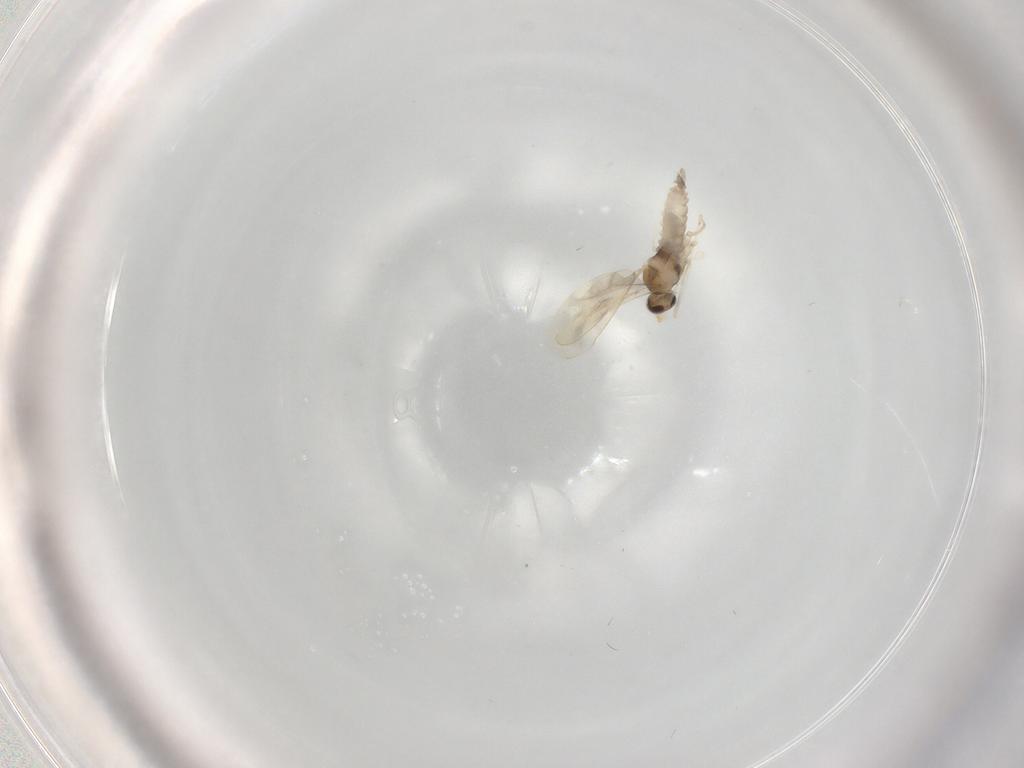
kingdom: Animalia
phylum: Arthropoda
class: Insecta
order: Diptera
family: Cecidomyiidae
